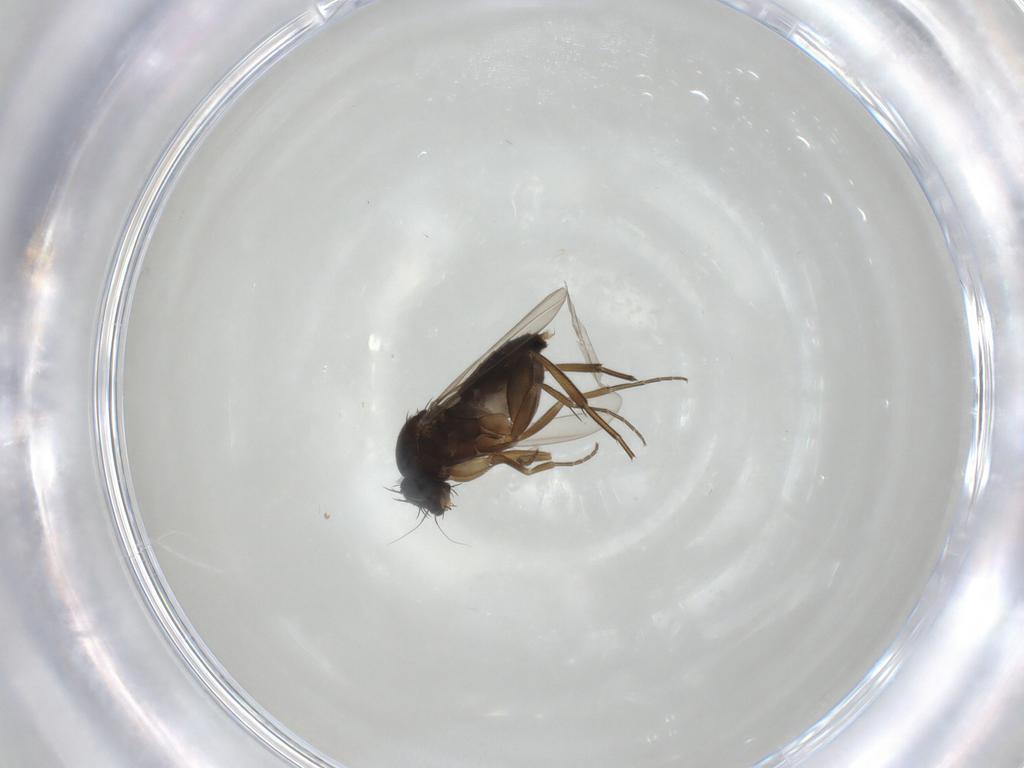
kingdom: Animalia
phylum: Arthropoda
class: Insecta
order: Diptera
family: Phoridae
